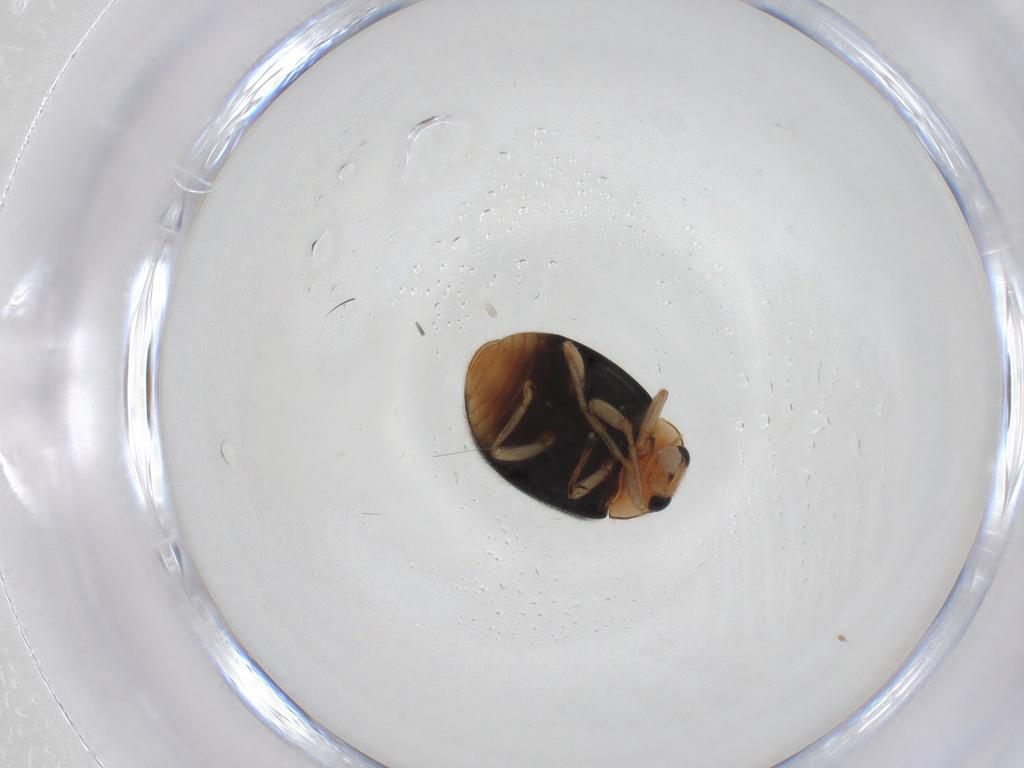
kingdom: Animalia
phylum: Arthropoda
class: Insecta
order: Coleoptera
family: Coccinellidae
